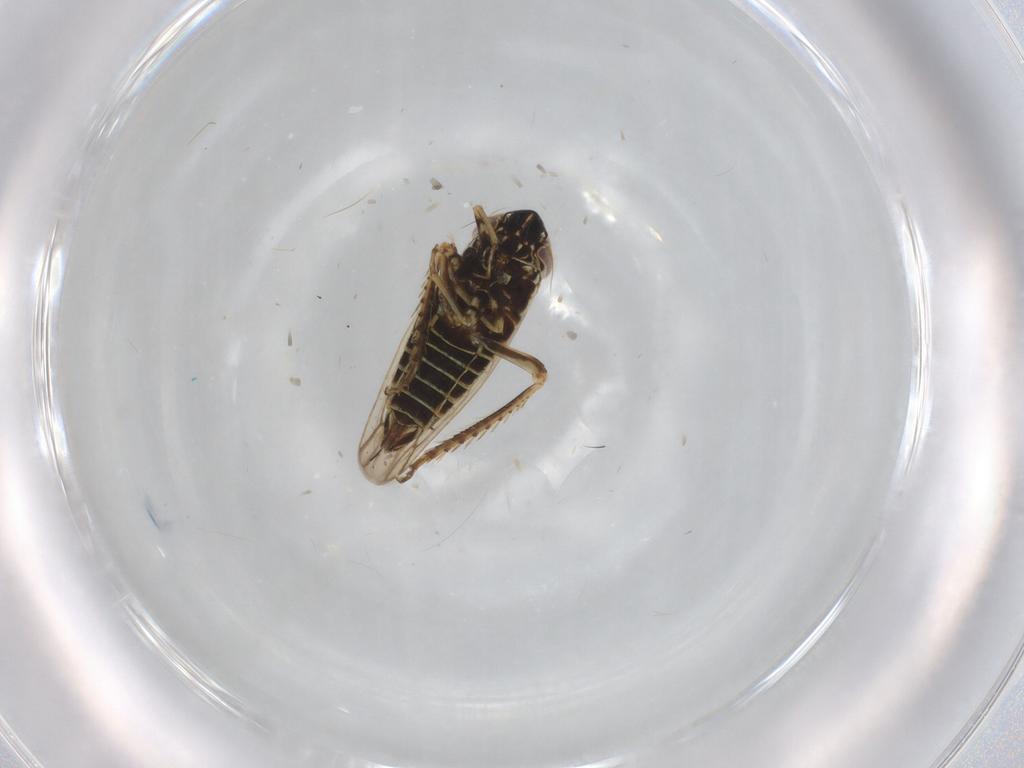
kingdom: Animalia
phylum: Arthropoda
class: Insecta
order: Hemiptera
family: Cicadellidae
